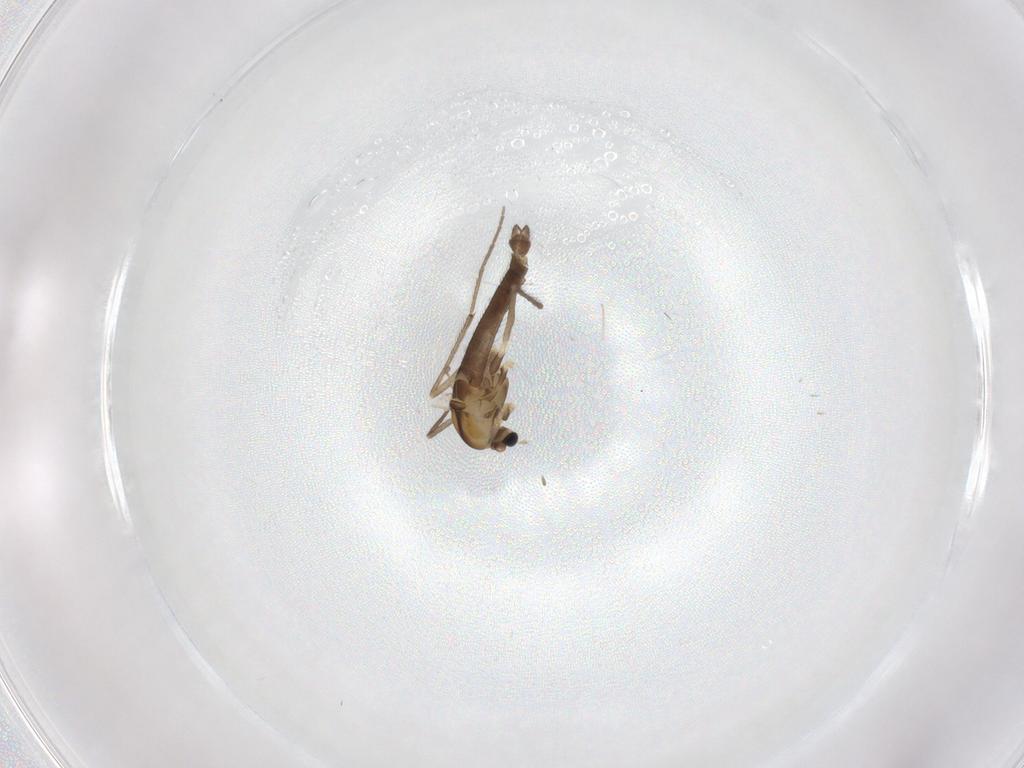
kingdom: Animalia
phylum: Arthropoda
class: Insecta
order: Diptera
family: Chironomidae
